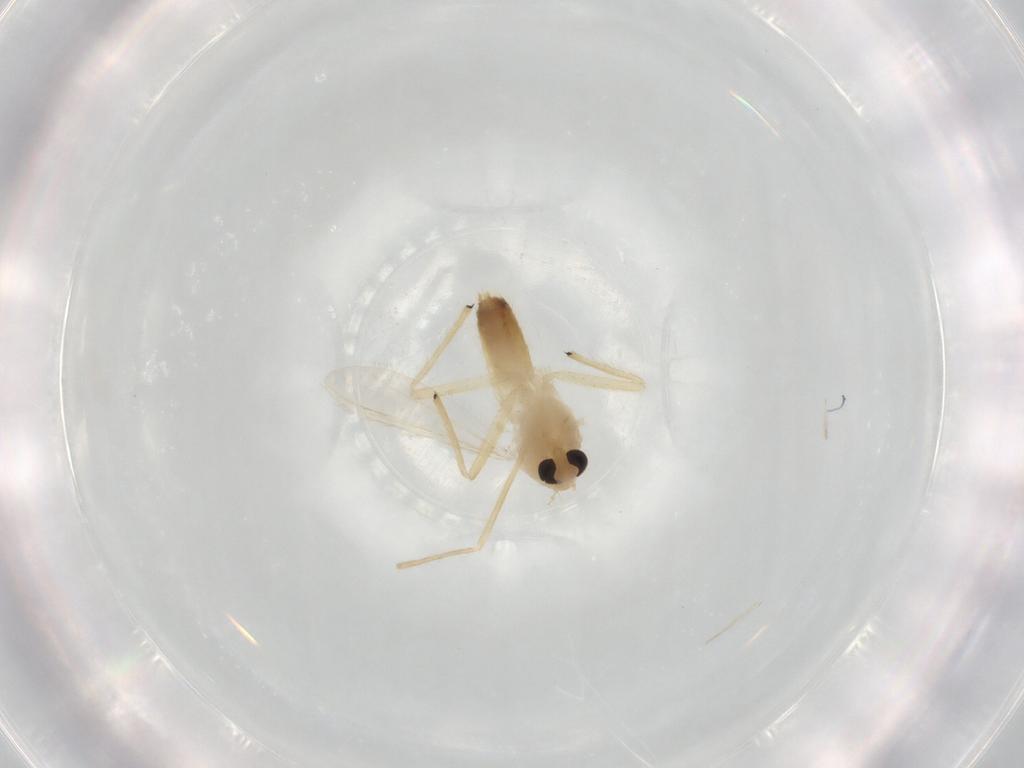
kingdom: Animalia
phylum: Arthropoda
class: Insecta
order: Diptera
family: Chironomidae
